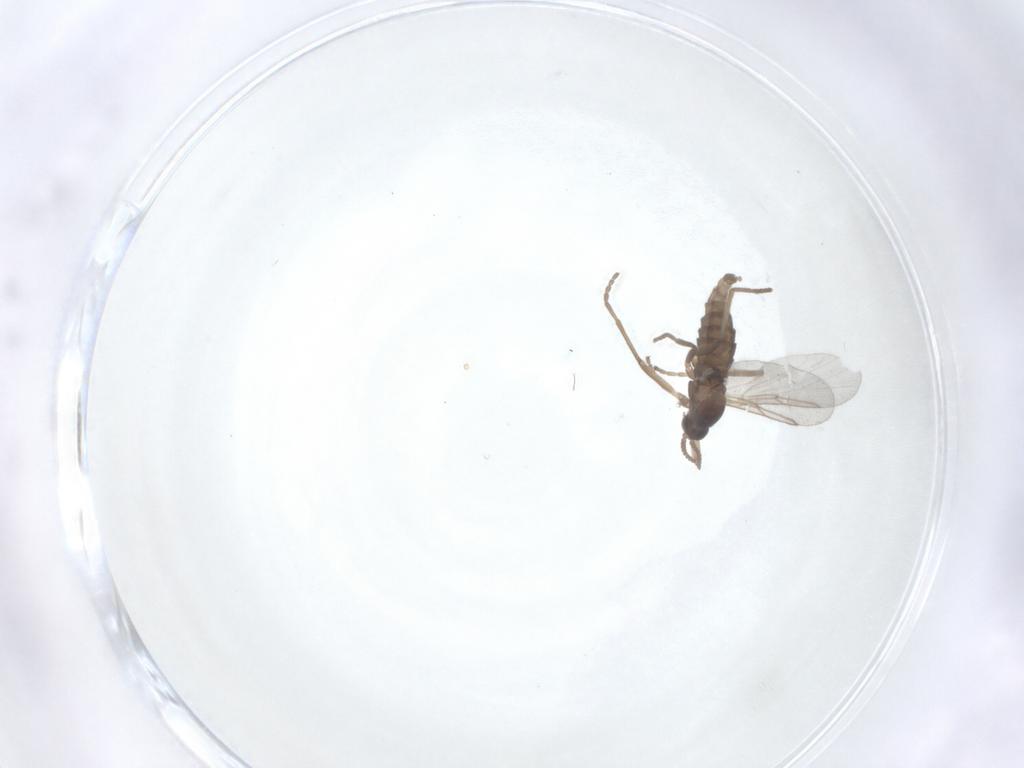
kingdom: Animalia
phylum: Arthropoda
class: Insecta
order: Diptera
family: Cecidomyiidae
